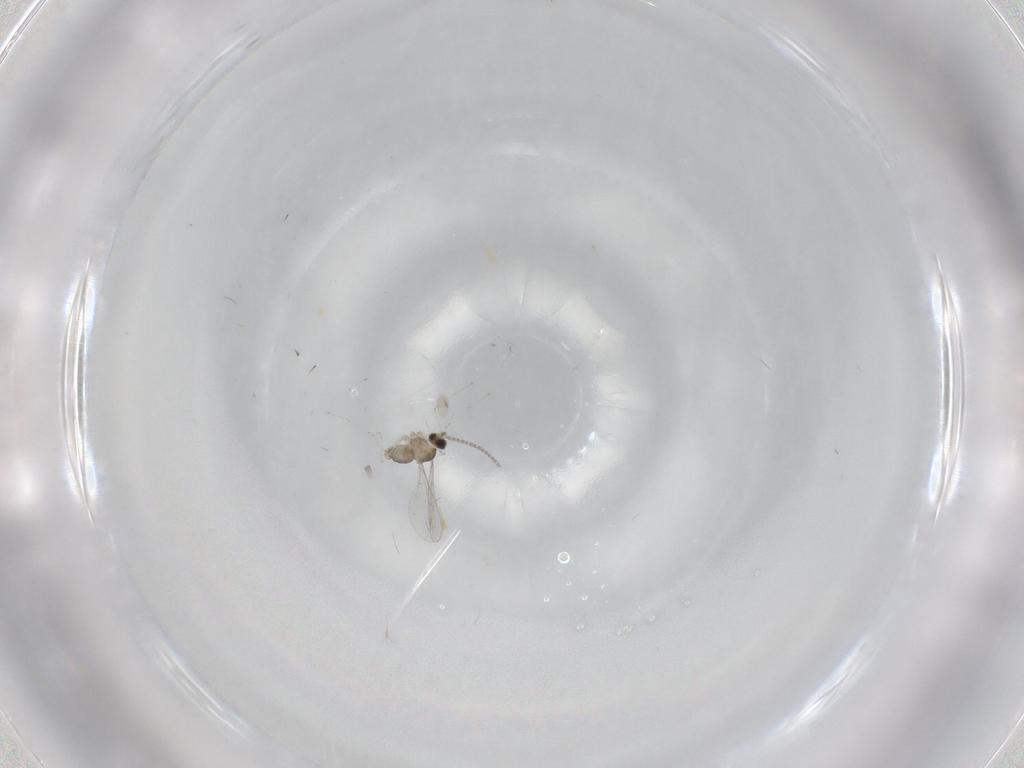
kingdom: Animalia
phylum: Arthropoda
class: Insecta
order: Diptera
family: Cecidomyiidae
